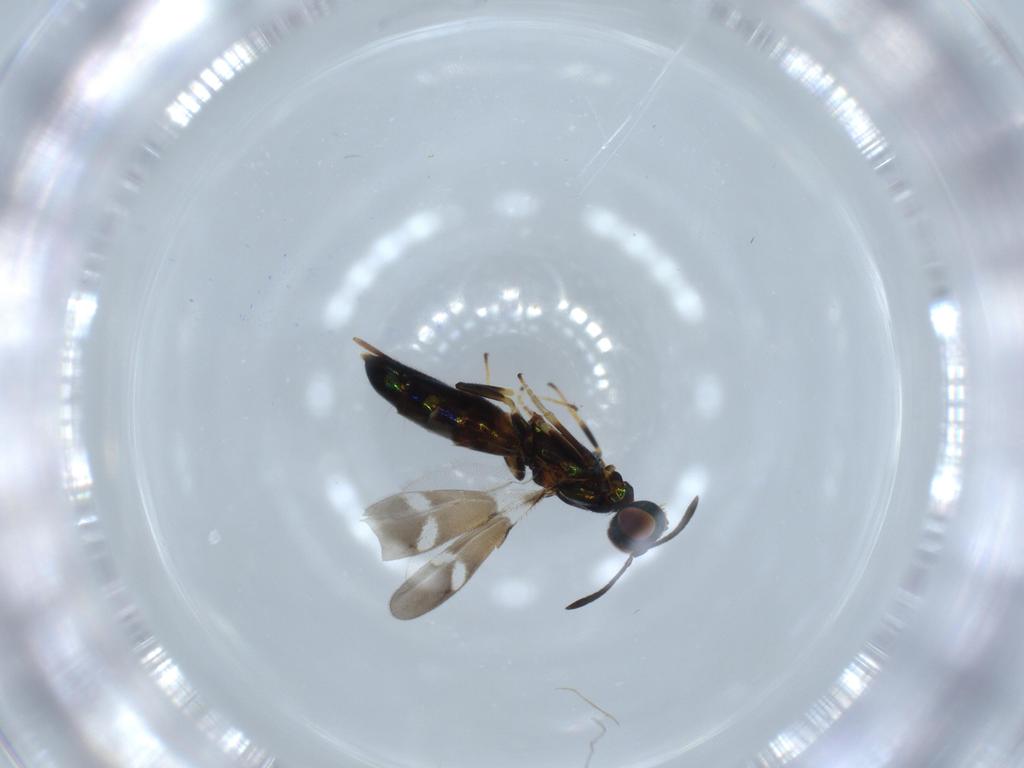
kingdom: Animalia
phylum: Arthropoda
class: Insecta
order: Hymenoptera
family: Eupelmidae
